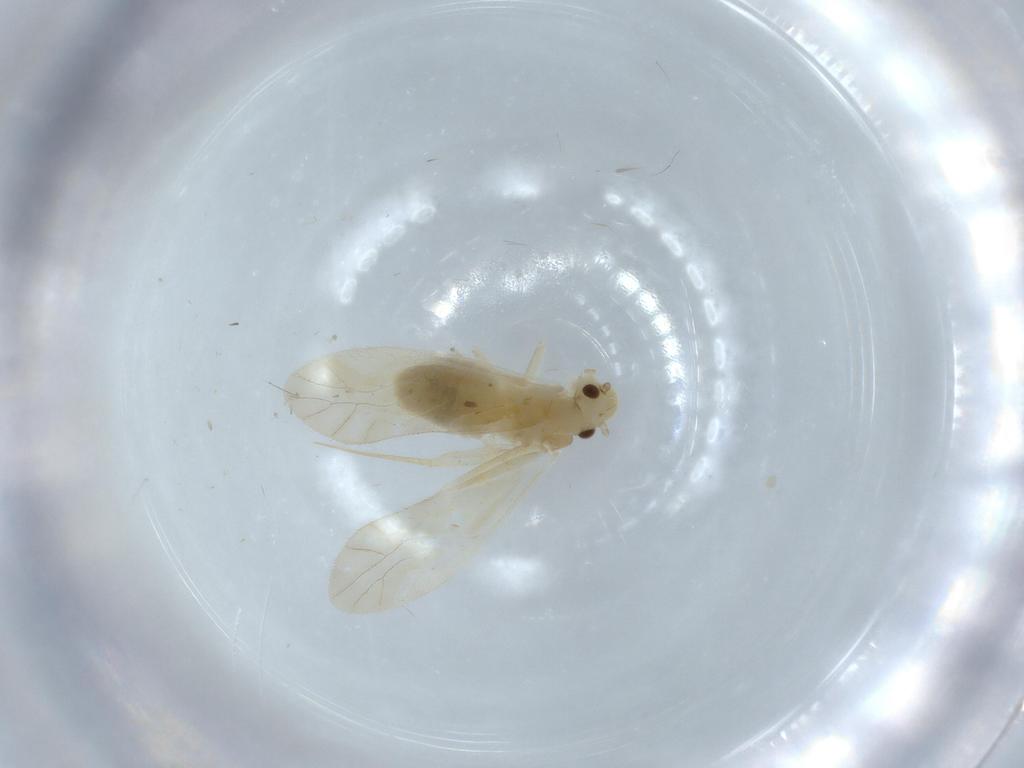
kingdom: Animalia
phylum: Arthropoda
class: Insecta
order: Psocodea
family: Caeciliusidae
